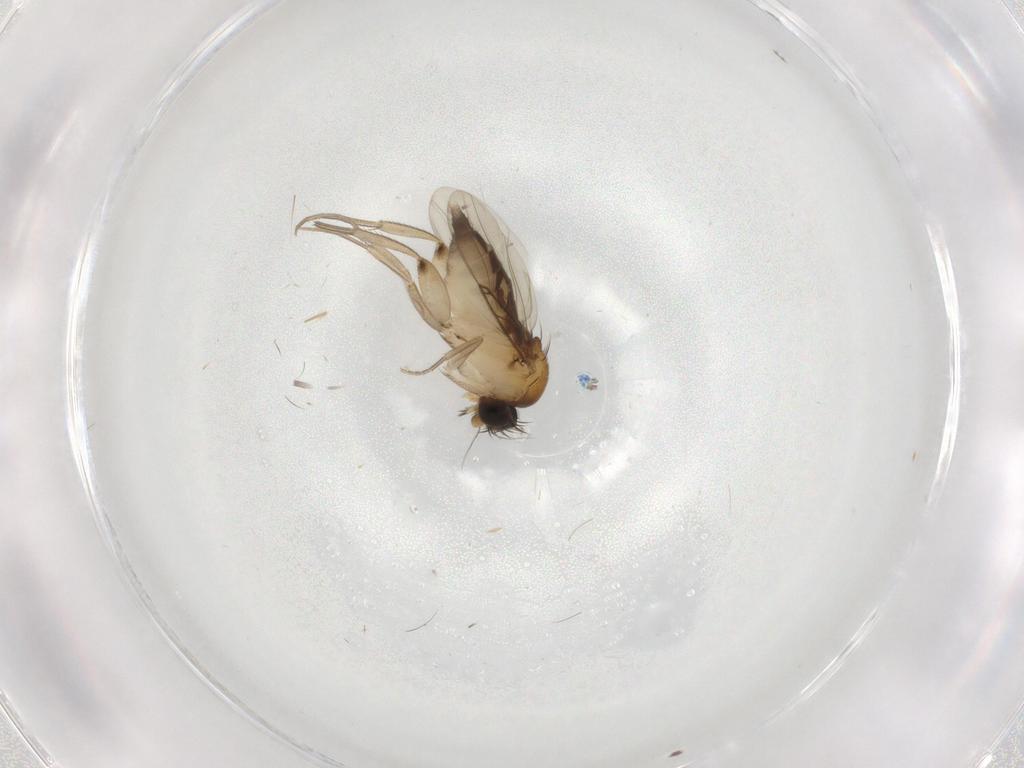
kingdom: Animalia
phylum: Arthropoda
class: Insecta
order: Diptera
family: Phoridae
